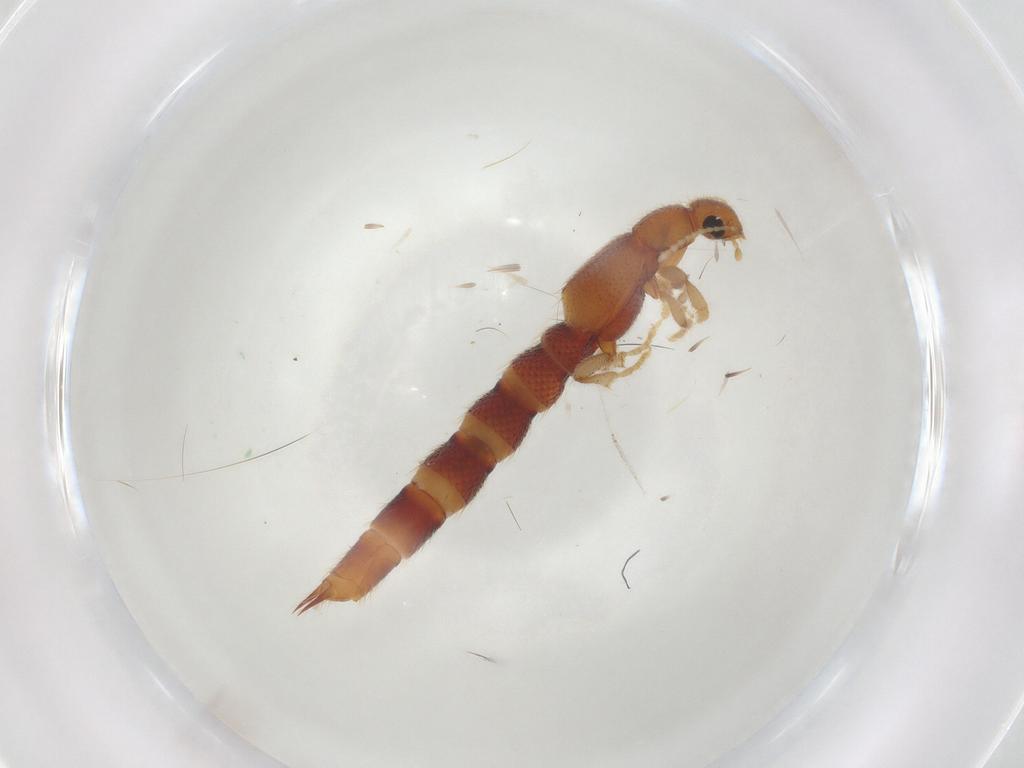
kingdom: Animalia
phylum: Arthropoda
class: Insecta
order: Coleoptera
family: Staphylinidae
